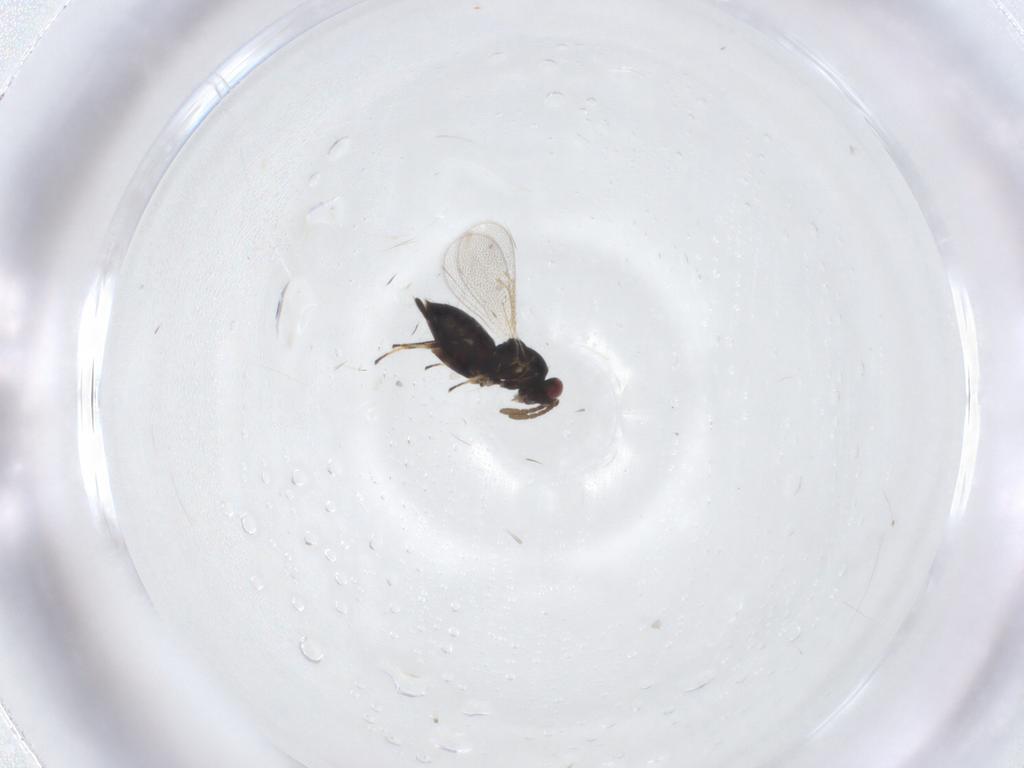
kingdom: Animalia
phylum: Arthropoda
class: Insecta
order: Hymenoptera
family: Eulophidae
